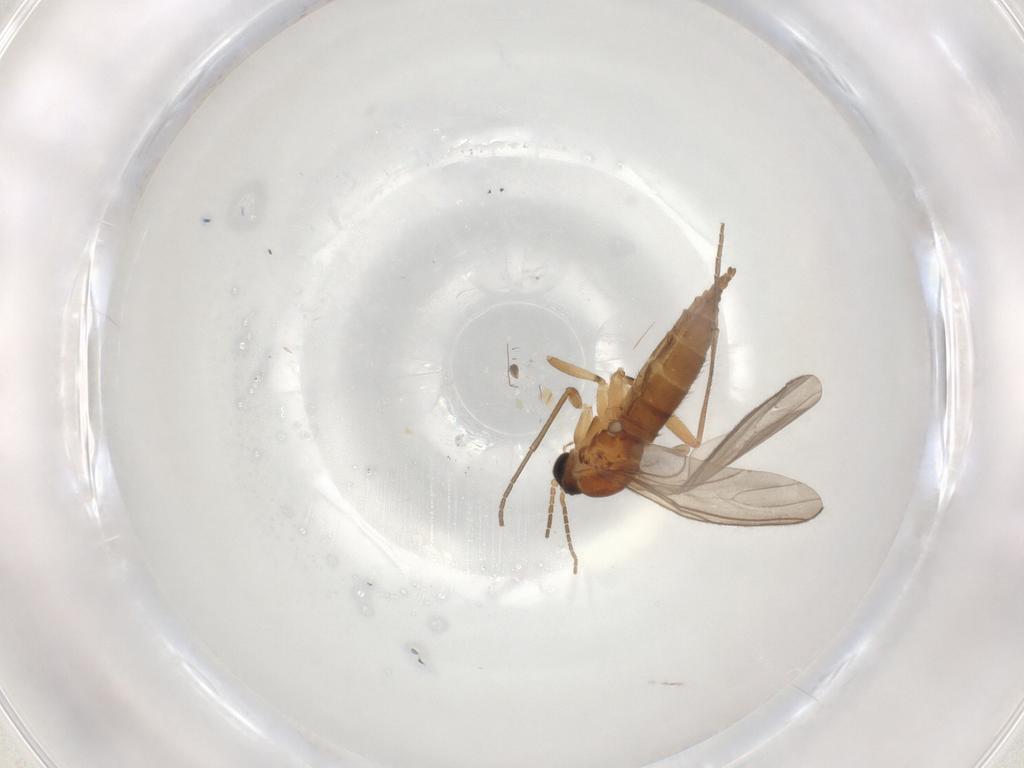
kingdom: Animalia
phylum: Arthropoda
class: Insecta
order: Diptera
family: Sciaridae
